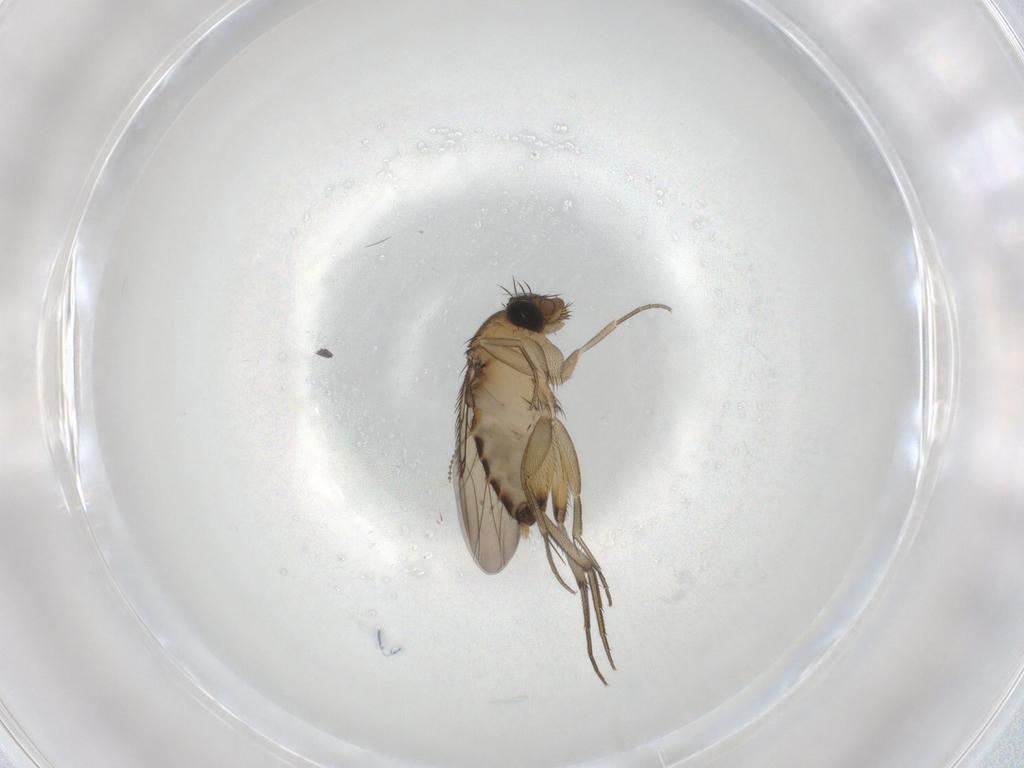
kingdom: Animalia
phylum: Arthropoda
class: Insecta
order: Diptera
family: Phoridae
